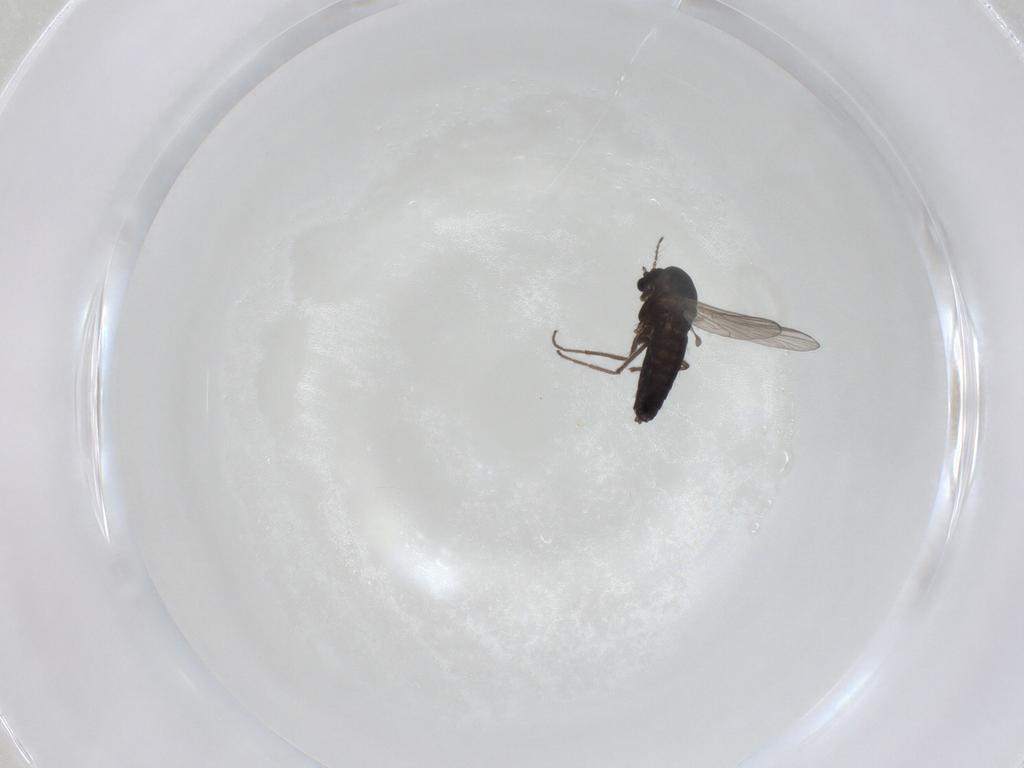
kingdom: Animalia
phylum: Arthropoda
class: Insecta
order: Diptera
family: Chironomidae
